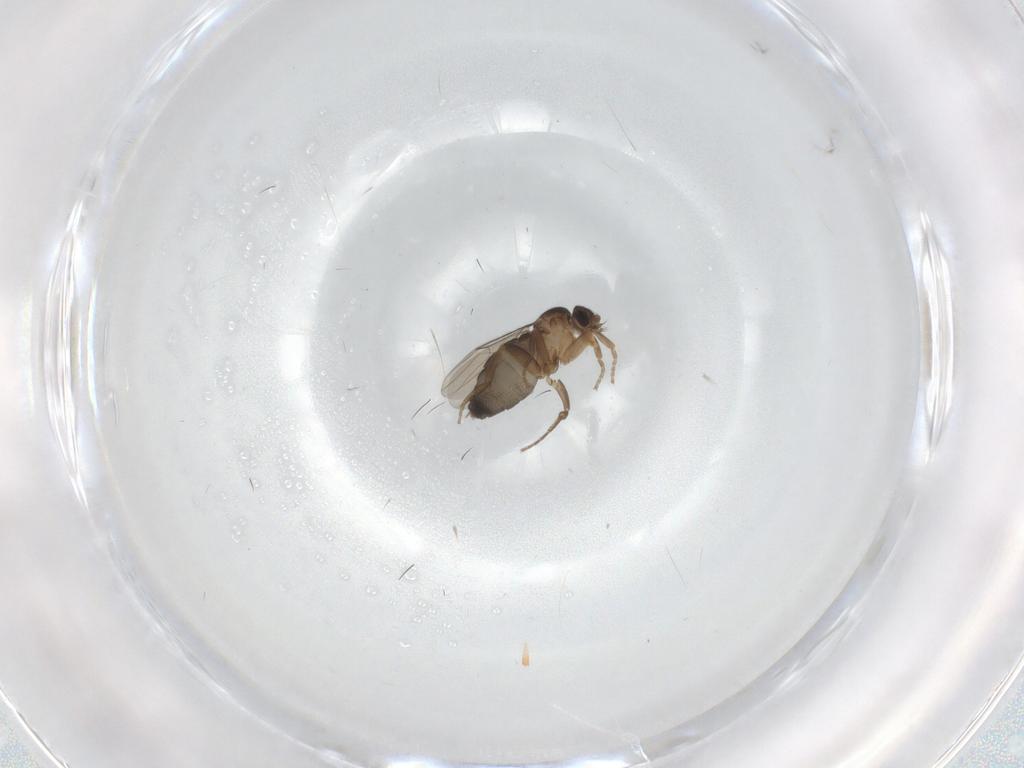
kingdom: Animalia
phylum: Arthropoda
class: Insecta
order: Diptera
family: Phoridae
